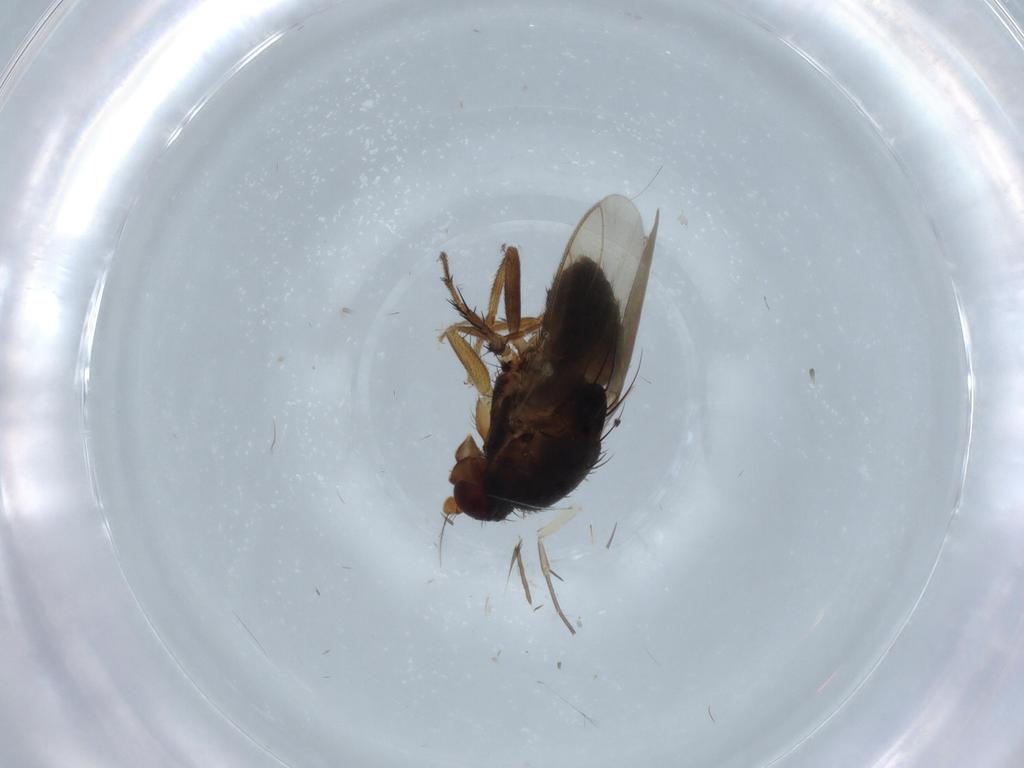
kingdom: Animalia
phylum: Arthropoda
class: Insecta
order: Diptera
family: Sphaeroceridae
